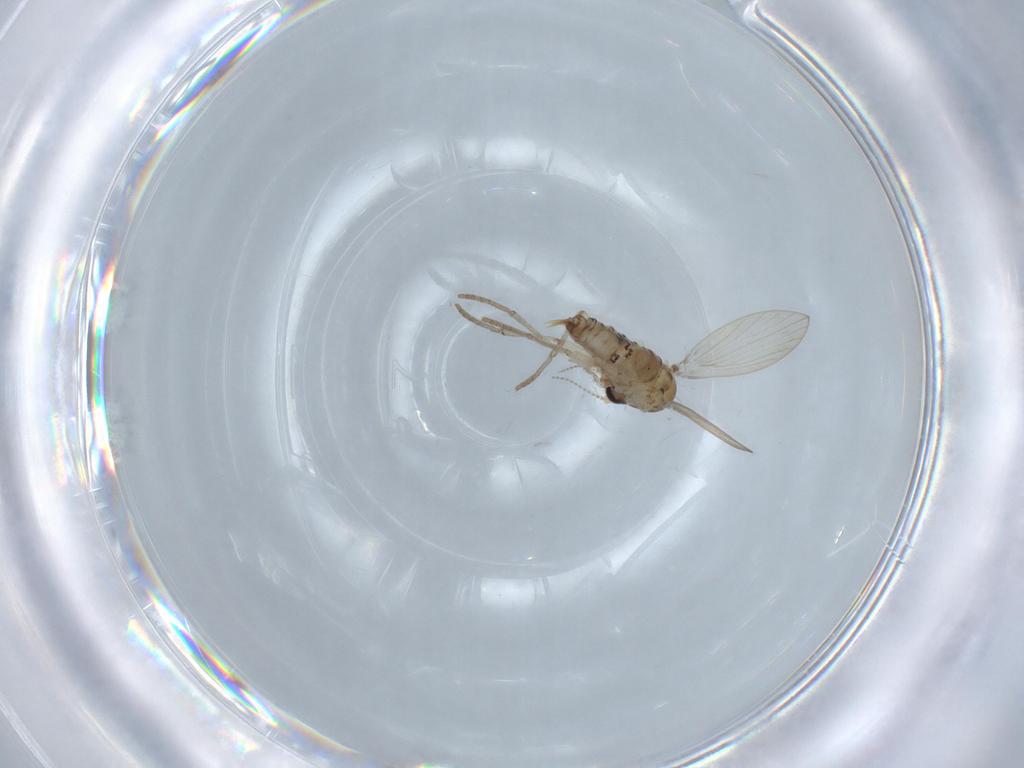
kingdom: Animalia
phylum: Arthropoda
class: Insecta
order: Diptera
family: Psychodidae
